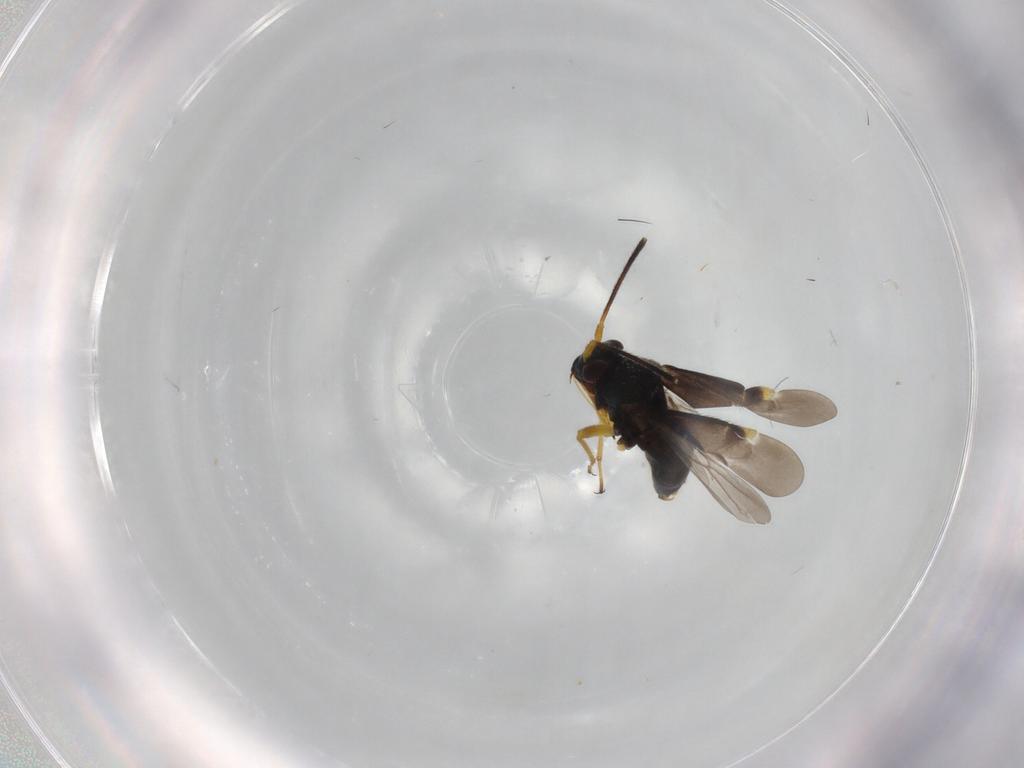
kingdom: Animalia
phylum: Arthropoda
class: Insecta
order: Hemiptera
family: Miridae
